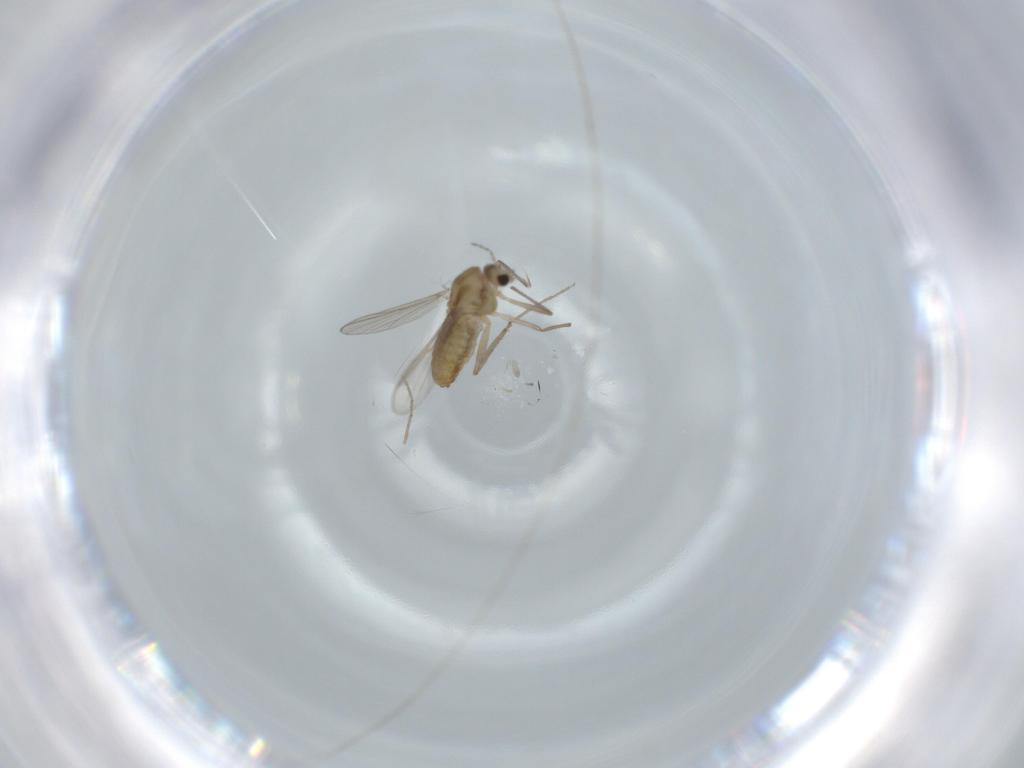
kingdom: Animalia
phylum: Arthropoda
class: Insecta
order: Diptera
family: Chironomidae
